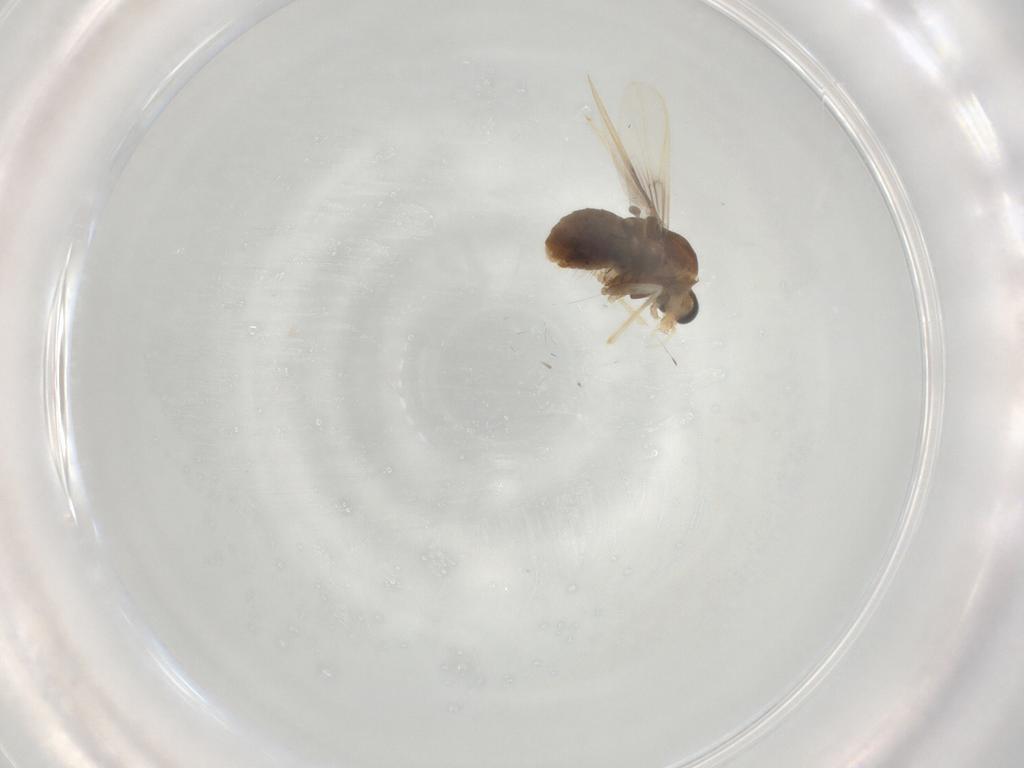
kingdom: Animalia
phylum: Arthropoda
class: Insecta
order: Diptera
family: Chironomidae
